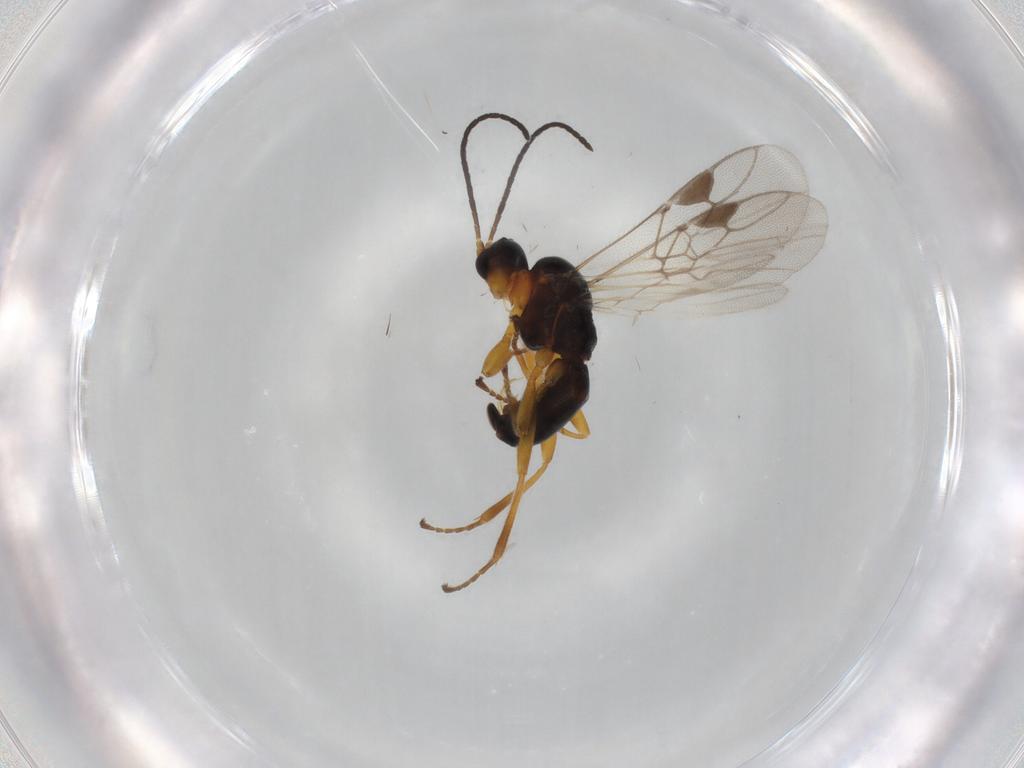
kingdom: Animalia
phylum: Arthropoda
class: Insecta
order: Hymenoptera
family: Braconidae
